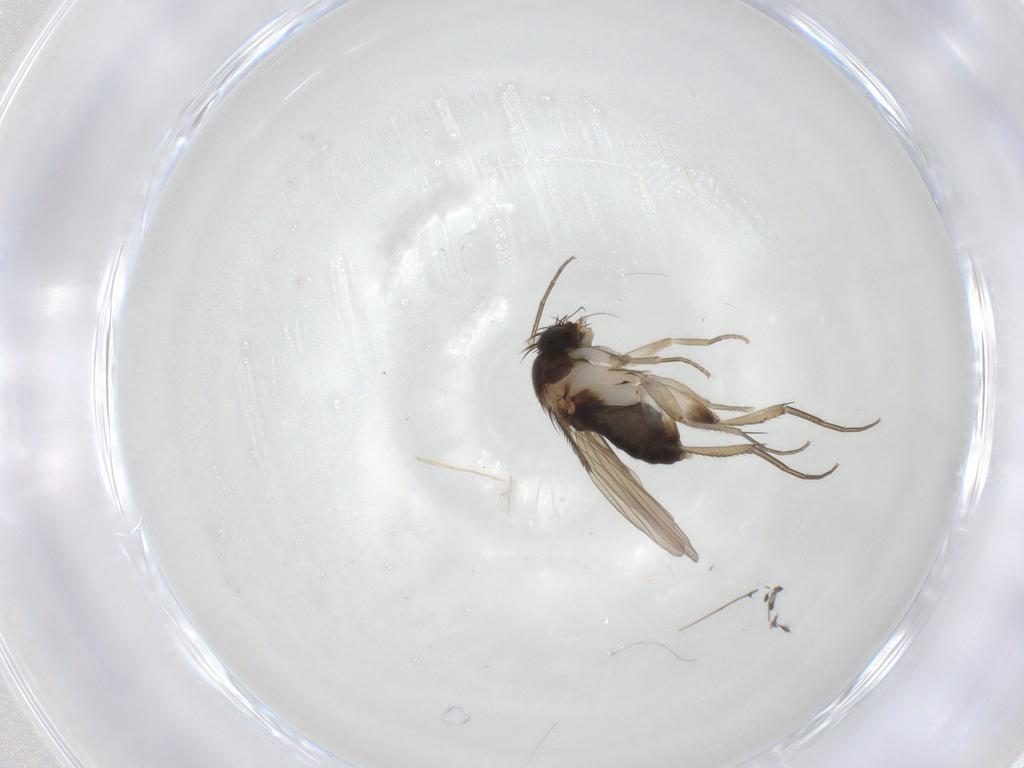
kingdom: Animalia
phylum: Arthropoda
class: Insecta
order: Diptera
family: Phoridae
